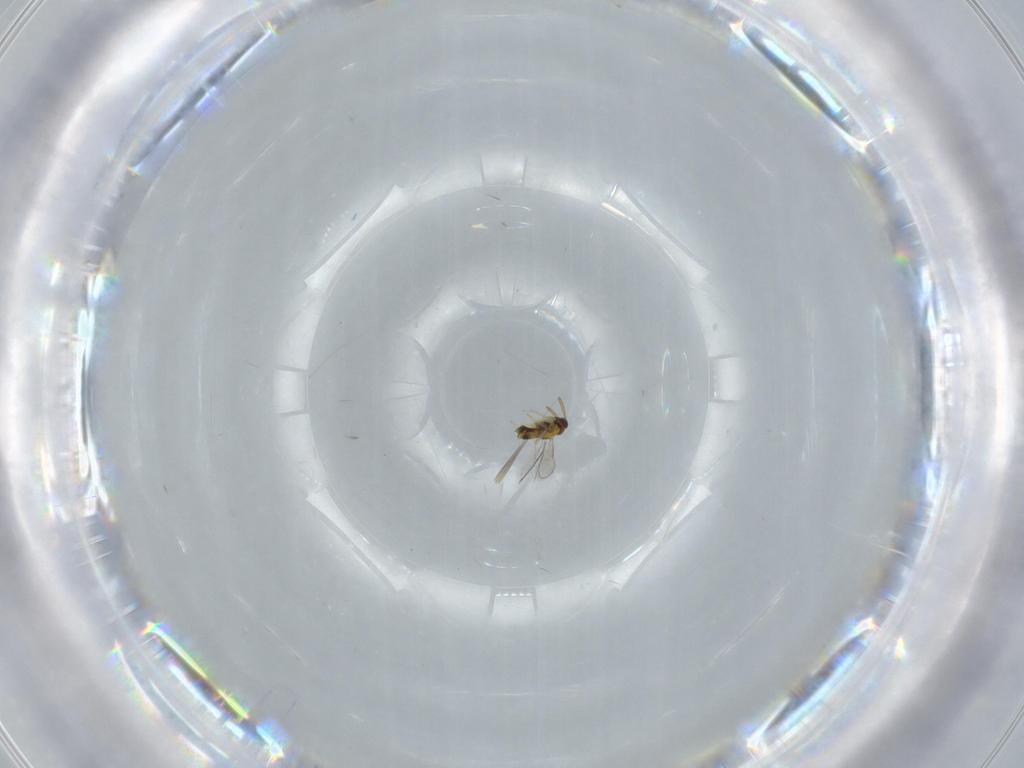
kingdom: Animalia
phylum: Arthropoda
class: Insecta
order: Hymenoptera
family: Aphelinidae
